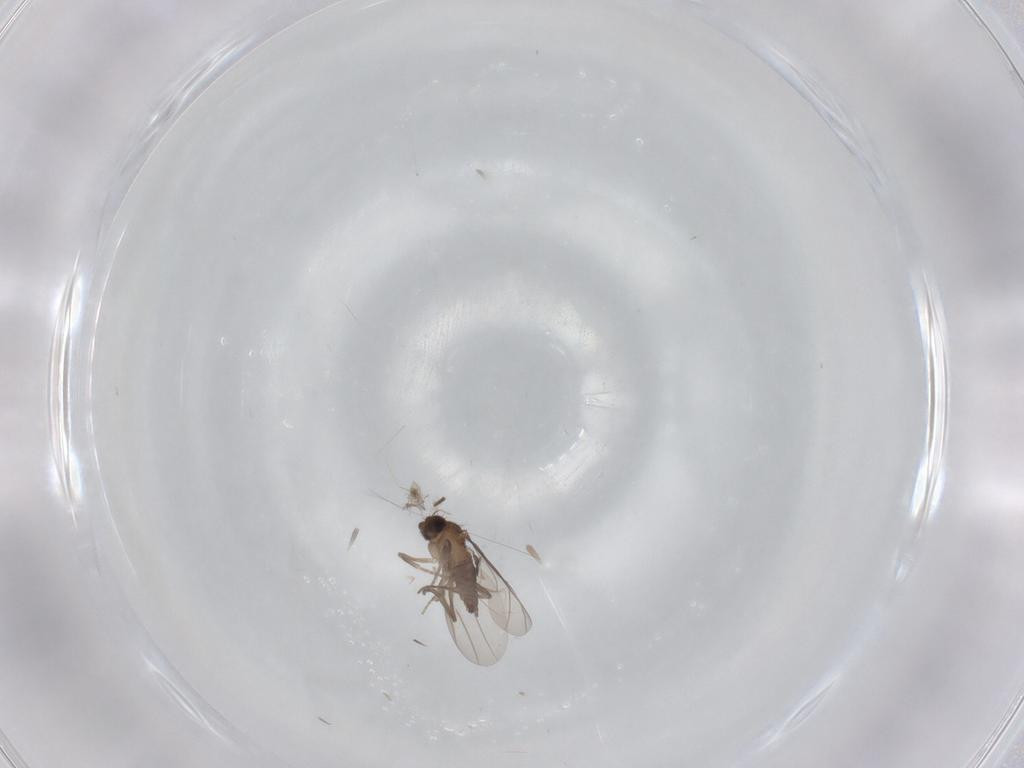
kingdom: Animalia
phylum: Arthropoda
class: Insecta
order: Diptera
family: Phoridae
